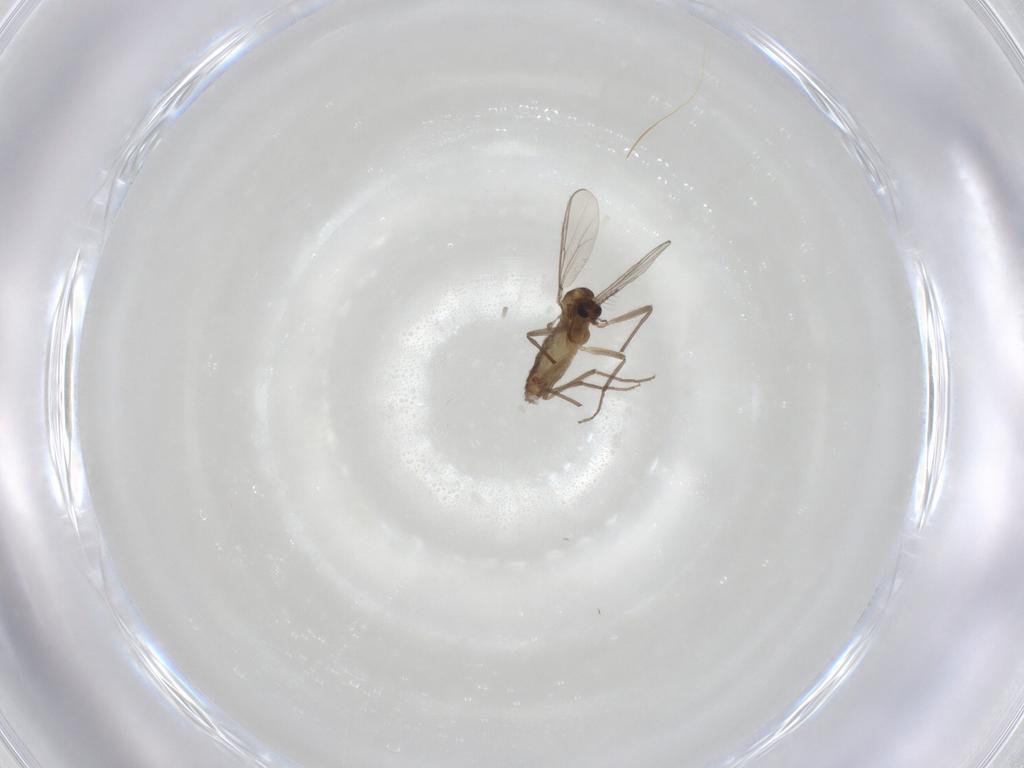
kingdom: Animalia
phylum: Arthropoda
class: Insecta
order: Diptera
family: Chironomidae
